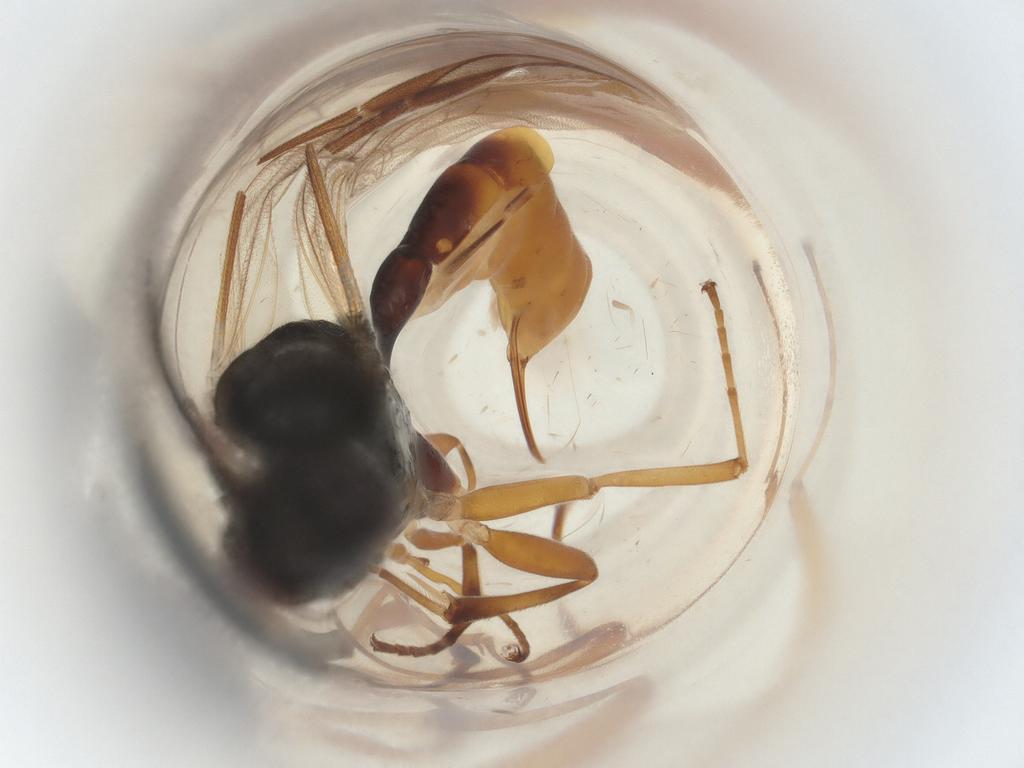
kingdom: Animalia
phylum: Arthropoda
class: Insecta
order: Hymenoptera
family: Ichneumonidae
